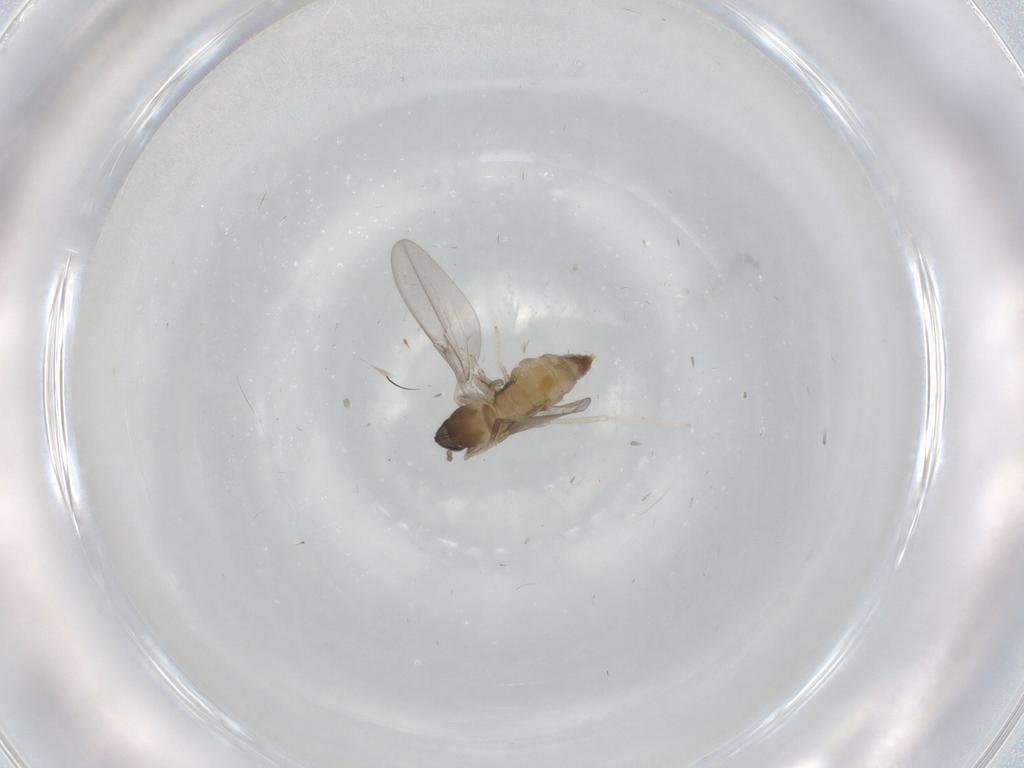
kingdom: Animalia
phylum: Arthropoda
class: Insecta
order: Diptera
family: Cecidomyiidae
